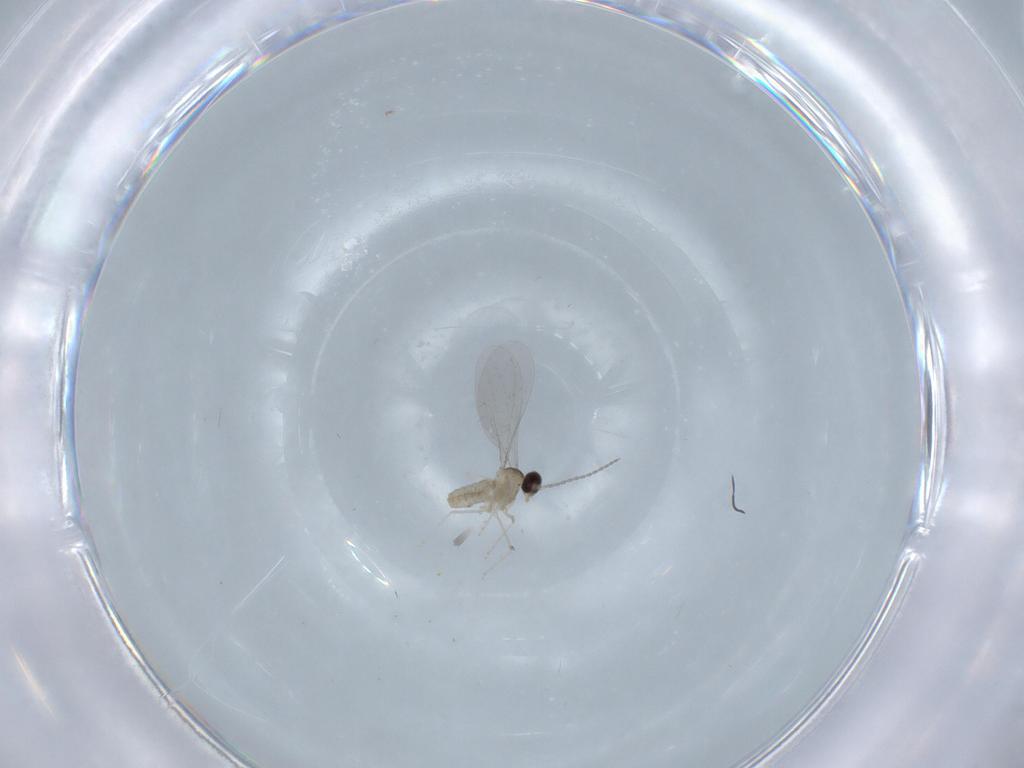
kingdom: Animalia
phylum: Arthropoda
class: Insecta
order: Diptera
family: Cecidomyiidae
